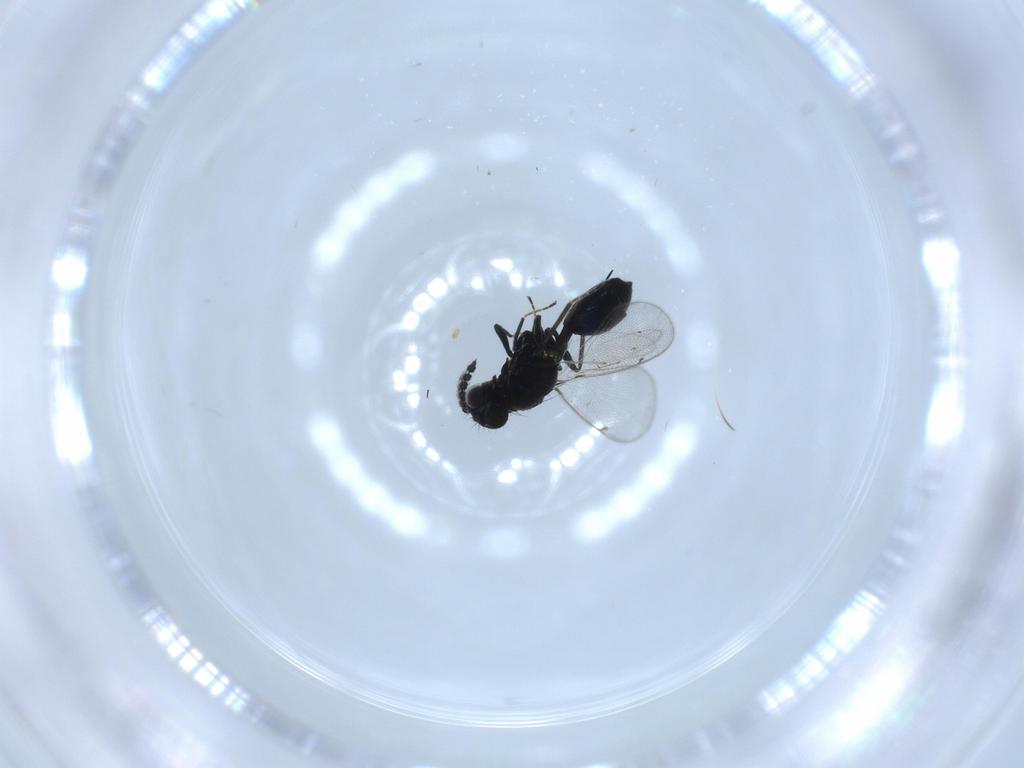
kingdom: Animalia
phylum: Arthropoda
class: Insecta
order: Hymenoptera
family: Eulophidae
